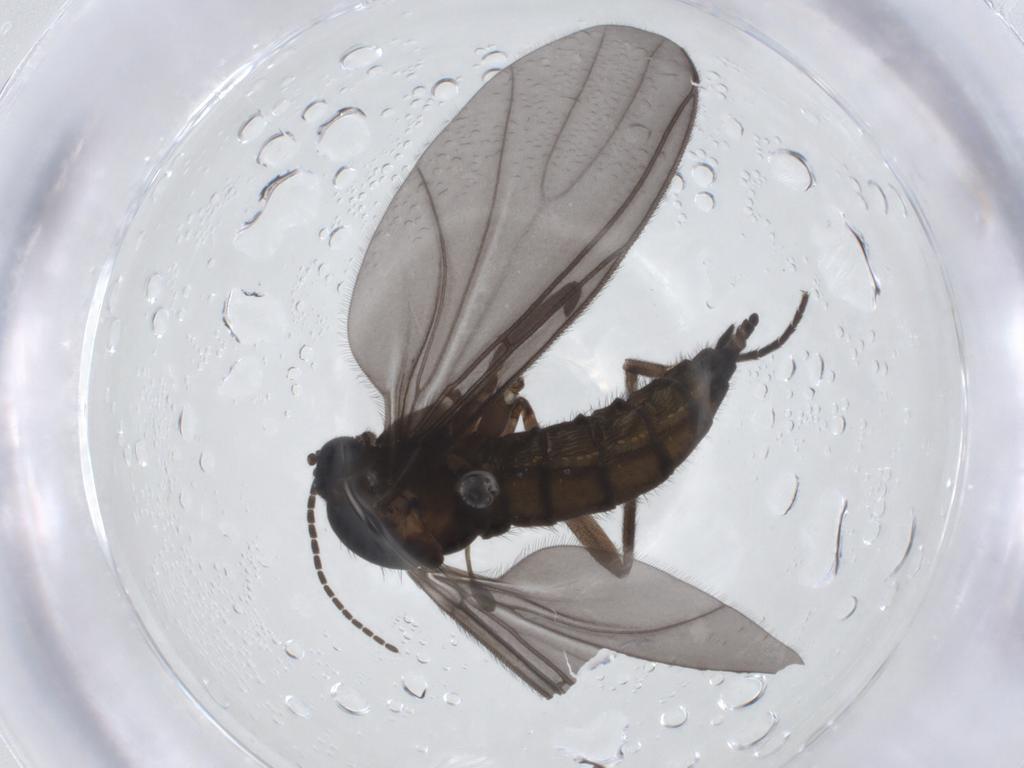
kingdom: Animalia
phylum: Arthropoda
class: Insecta
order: Diptera
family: Sciaridae
